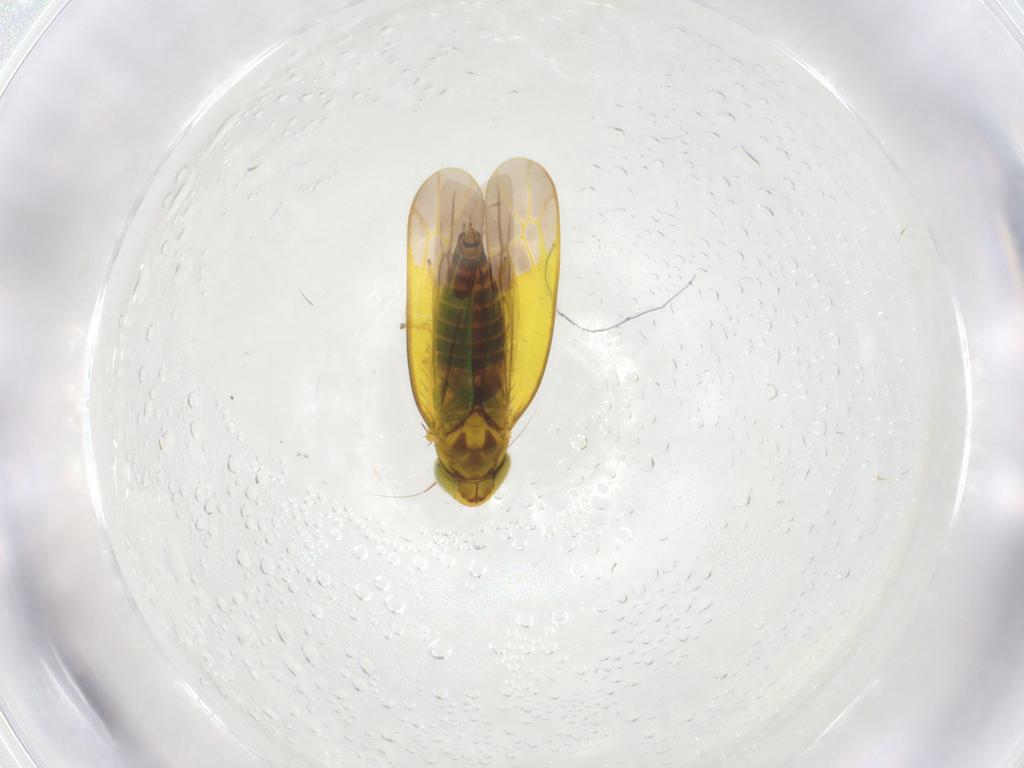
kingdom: Animalia
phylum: Arthropoda
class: Insecta
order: Hemiptera
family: Cicadellidae
